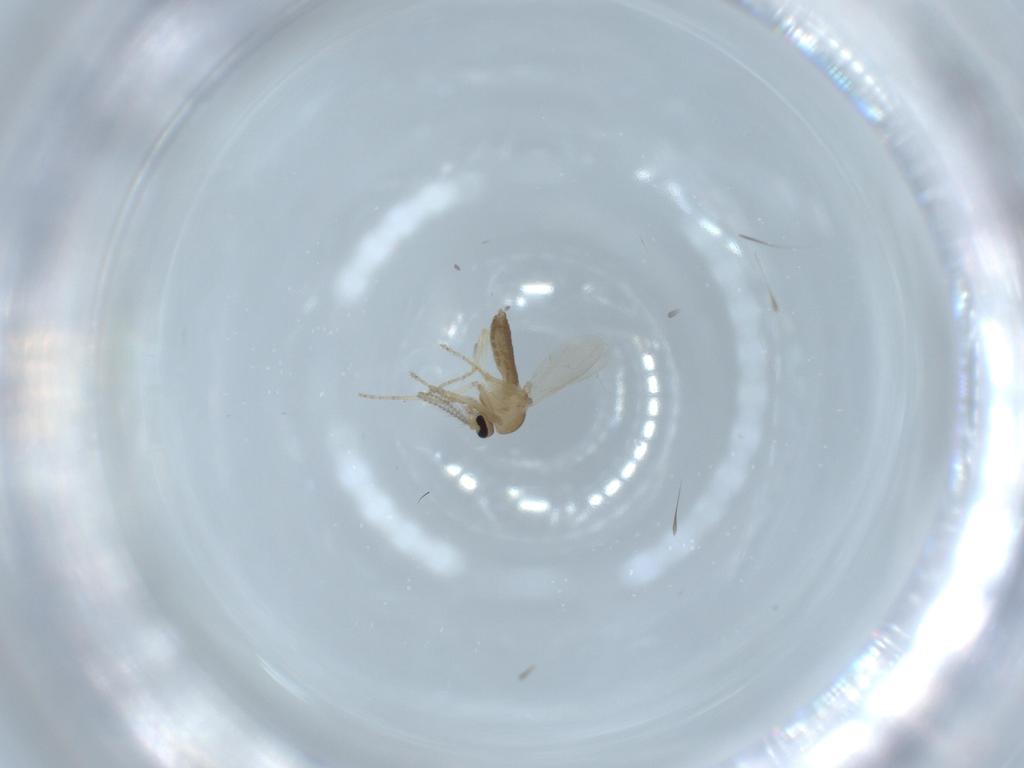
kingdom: Animalia
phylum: Arthropoda
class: Insecta
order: Diptera
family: Ceratopogonidae
